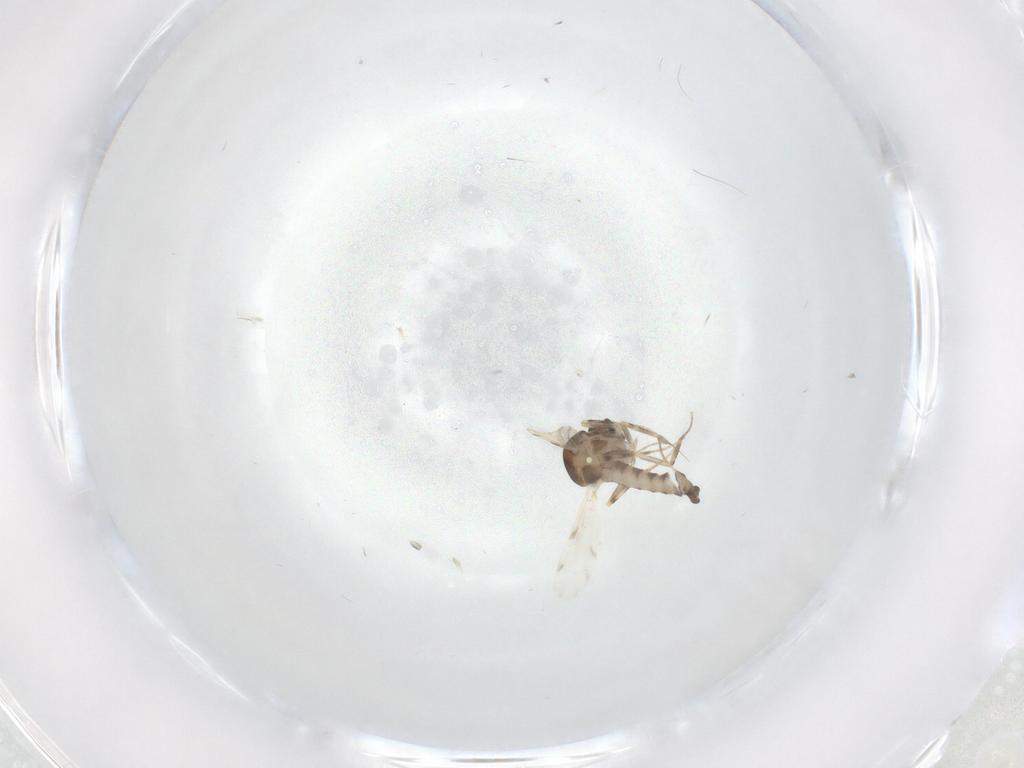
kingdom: Animalia
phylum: Arthropoda
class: Insecta
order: Diptera
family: Ceratopogonidae
